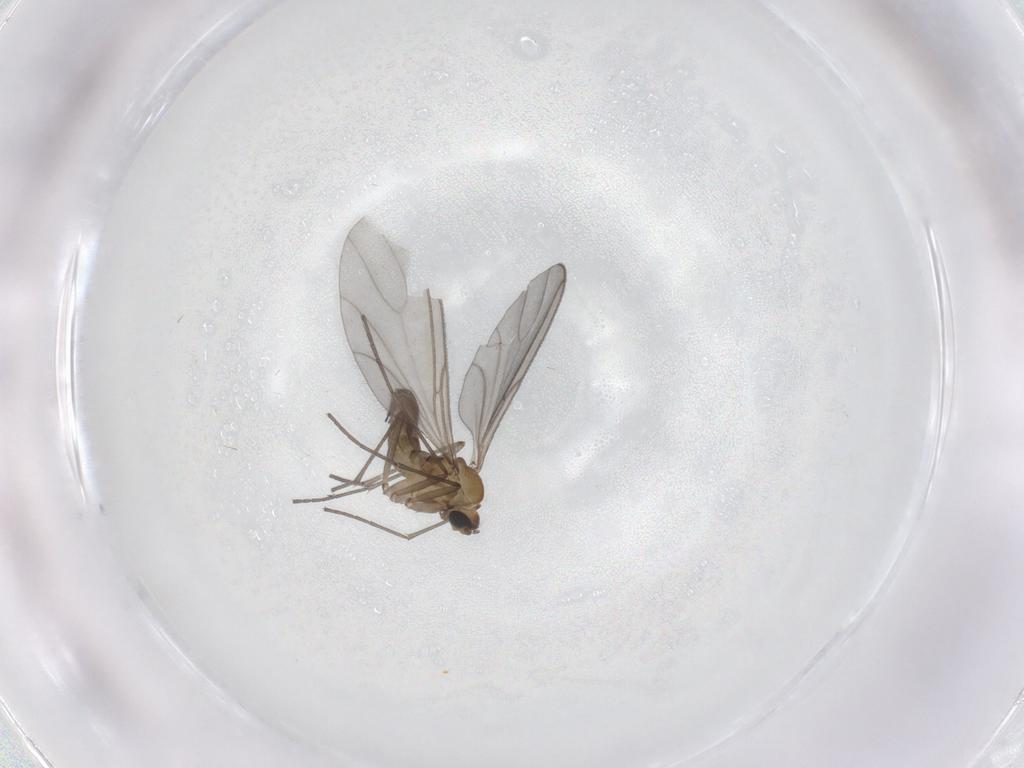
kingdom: Animalia
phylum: Arthropoda
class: Insecta
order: Diptera
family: Sciaridae
